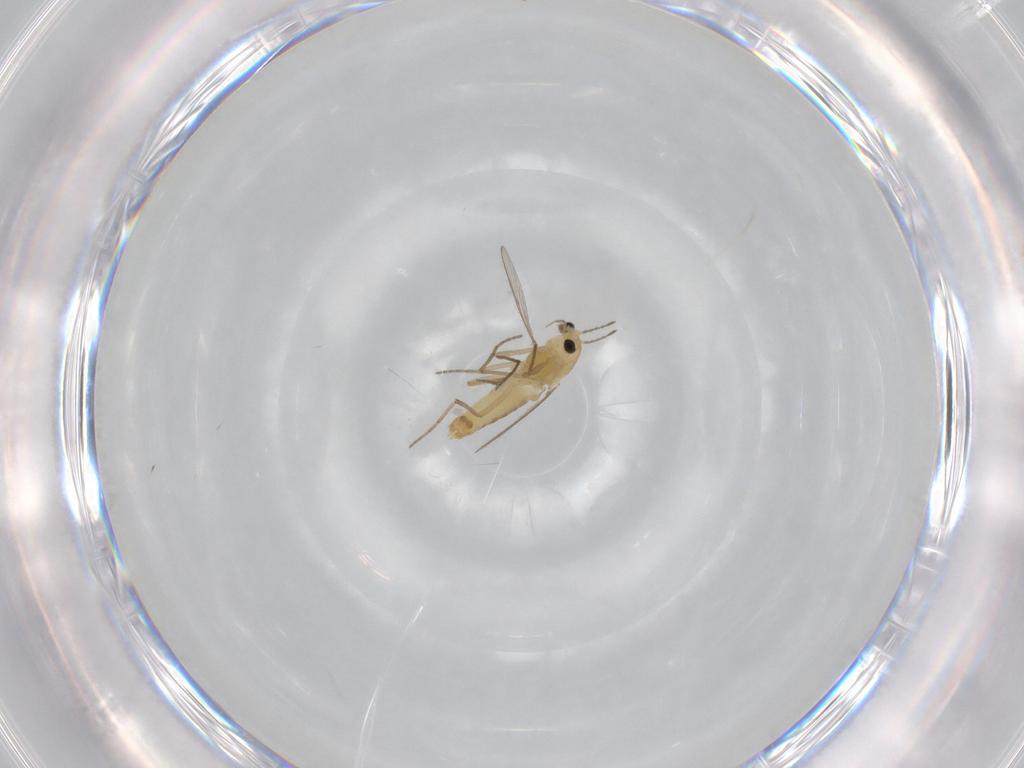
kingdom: Animalia
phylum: Arthropoda
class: Insecta
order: Diptera
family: Chironomidae
